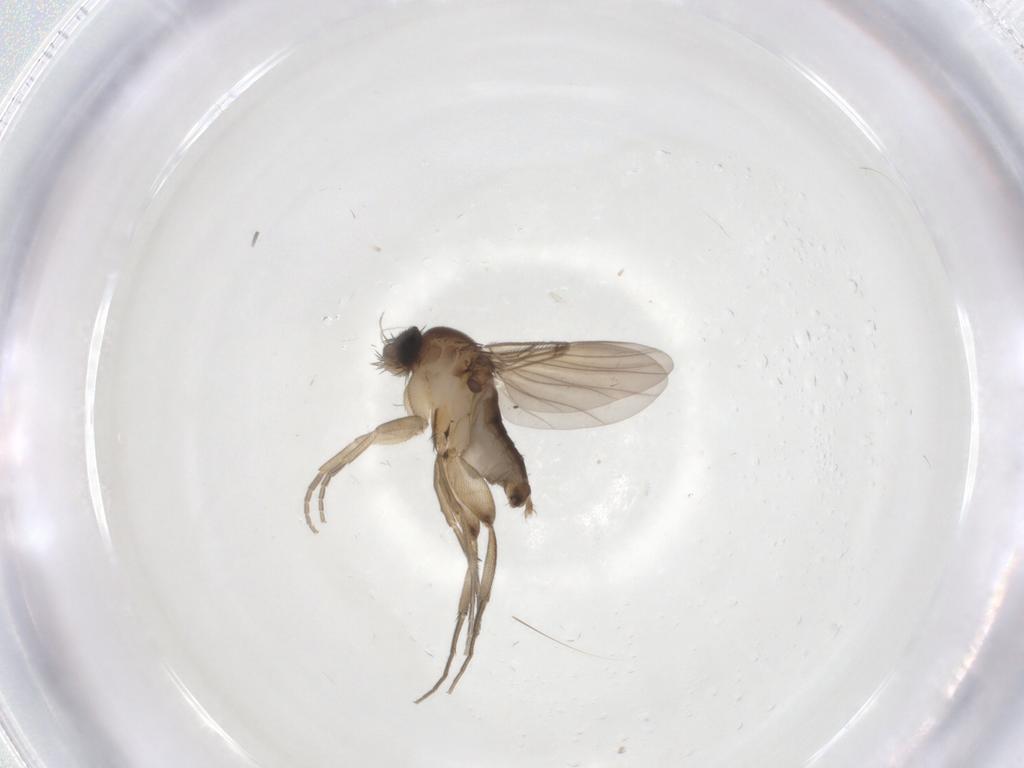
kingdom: Animalia
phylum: Arthropoda
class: Insecta
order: Diptera
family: Phoridae
